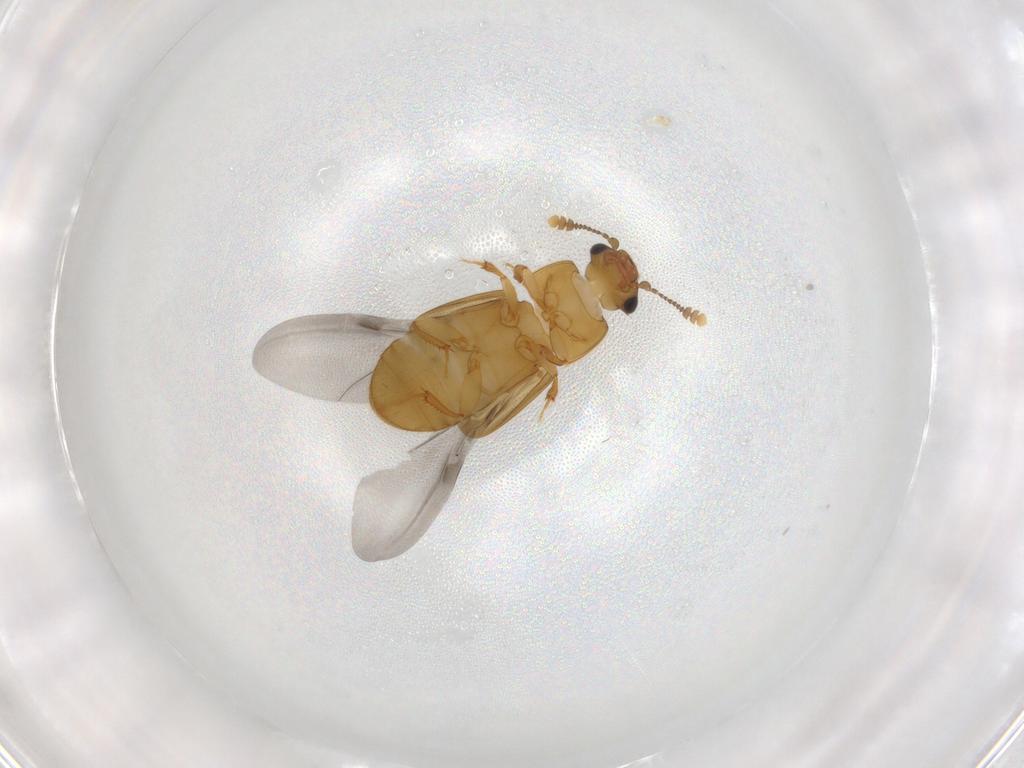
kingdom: Animalia
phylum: Arthropoda
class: Insecta
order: Coleoptera
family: Nitidulidae
